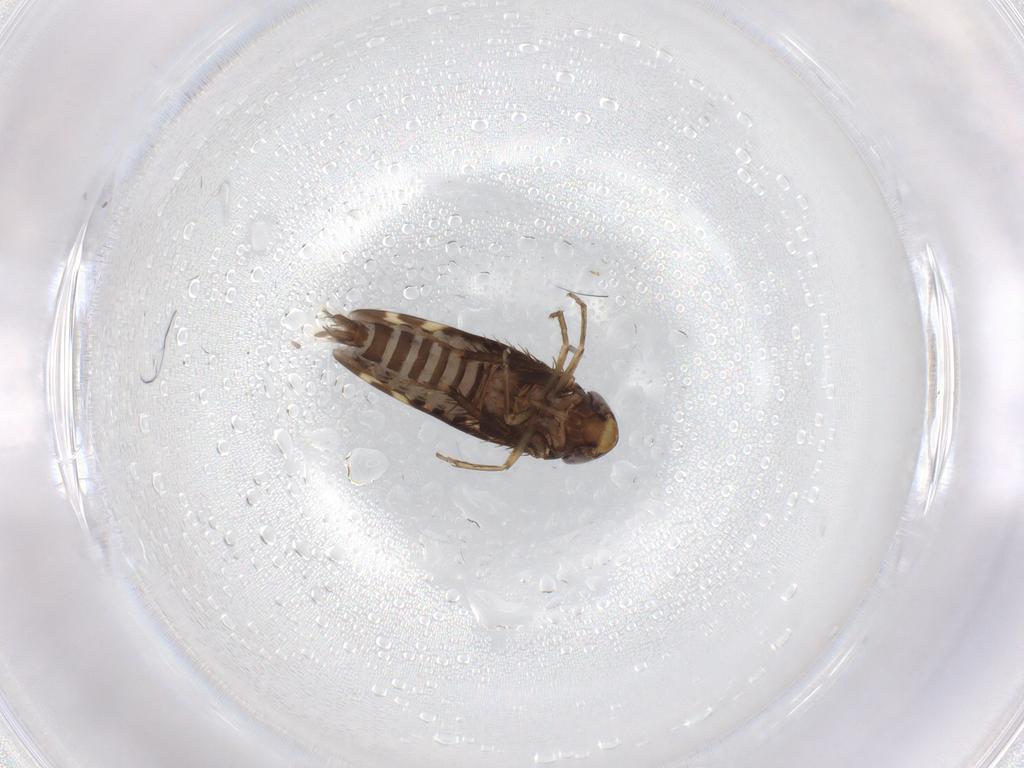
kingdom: Animalia
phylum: Arthropoda
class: Insecta
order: Hemiptera
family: Cicadellidae
